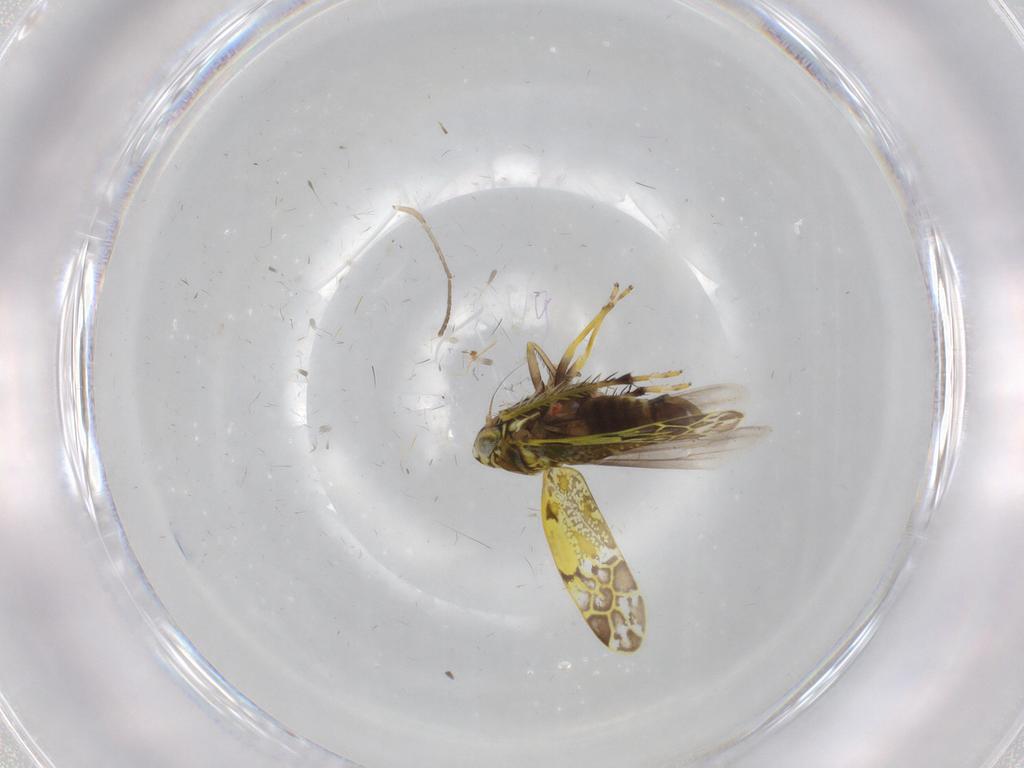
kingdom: Animalia
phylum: Arthropoda
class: Insecta
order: Hemiptera
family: Cicadellidae
